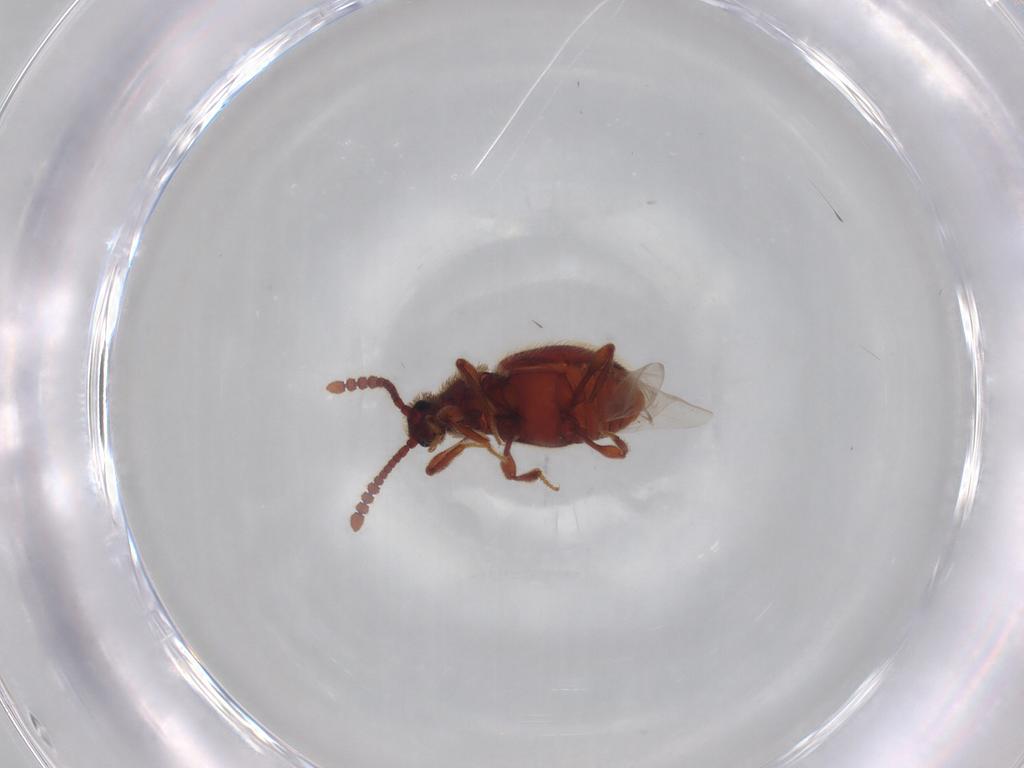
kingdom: Animalia
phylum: Arthropoda
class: Insecta
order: Coleoptera
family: Staphylinidae
